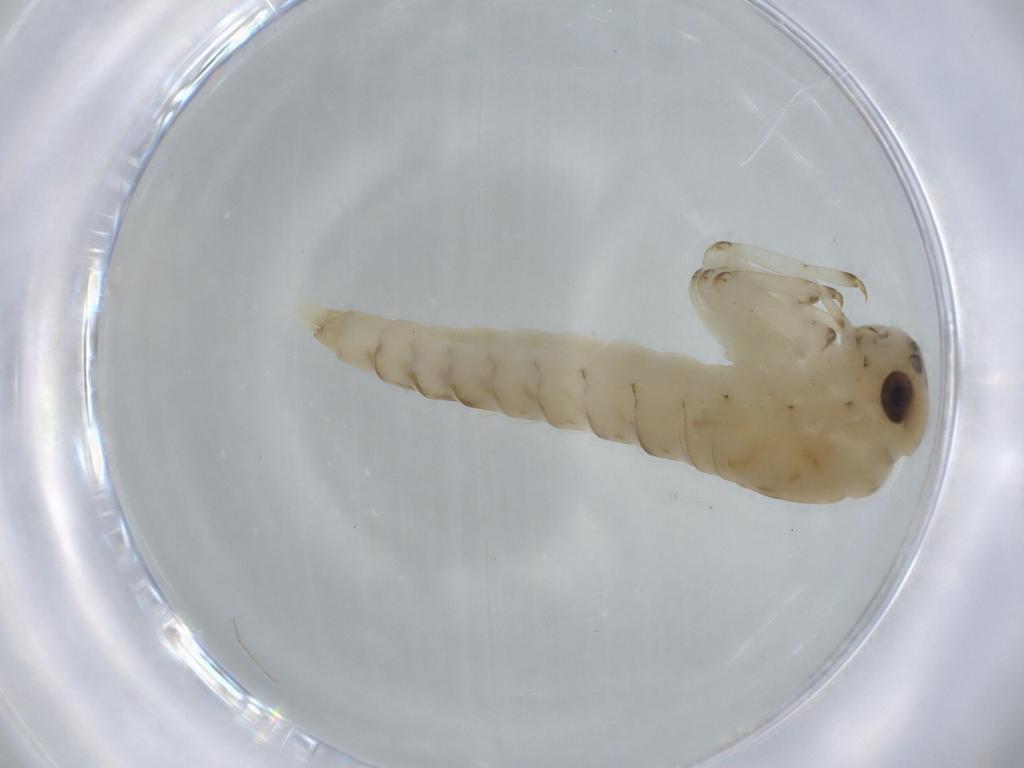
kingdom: Animalia
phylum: Arthropoda
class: Insecta
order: Ephemeroptera
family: Baetidae
